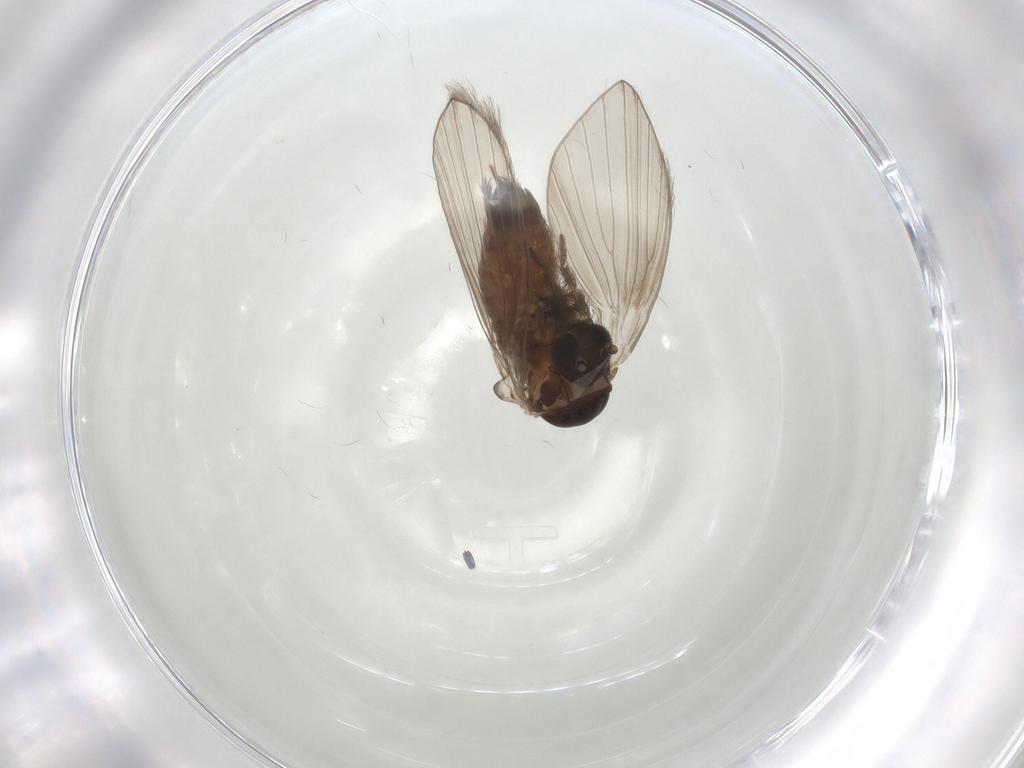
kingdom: Animalia
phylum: Arthropoda
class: Insecta
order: Diptera
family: Psychodidae
